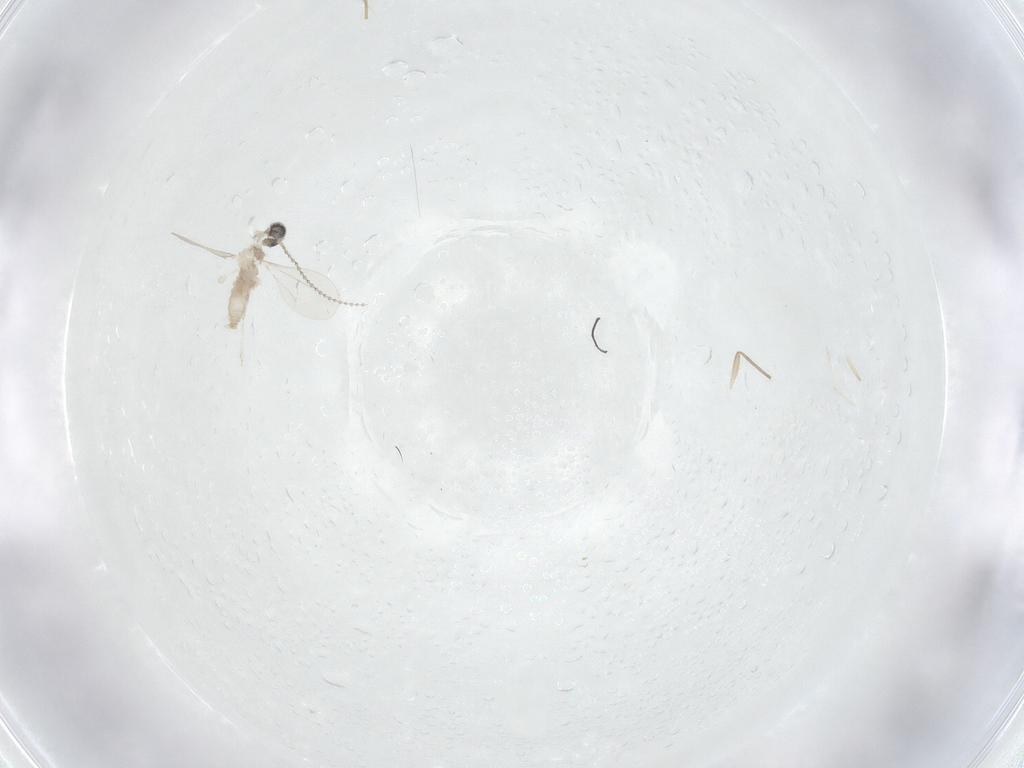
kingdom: Animalia
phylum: Arthropoda
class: Insecta
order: Diptera
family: Cecidomyiidae
